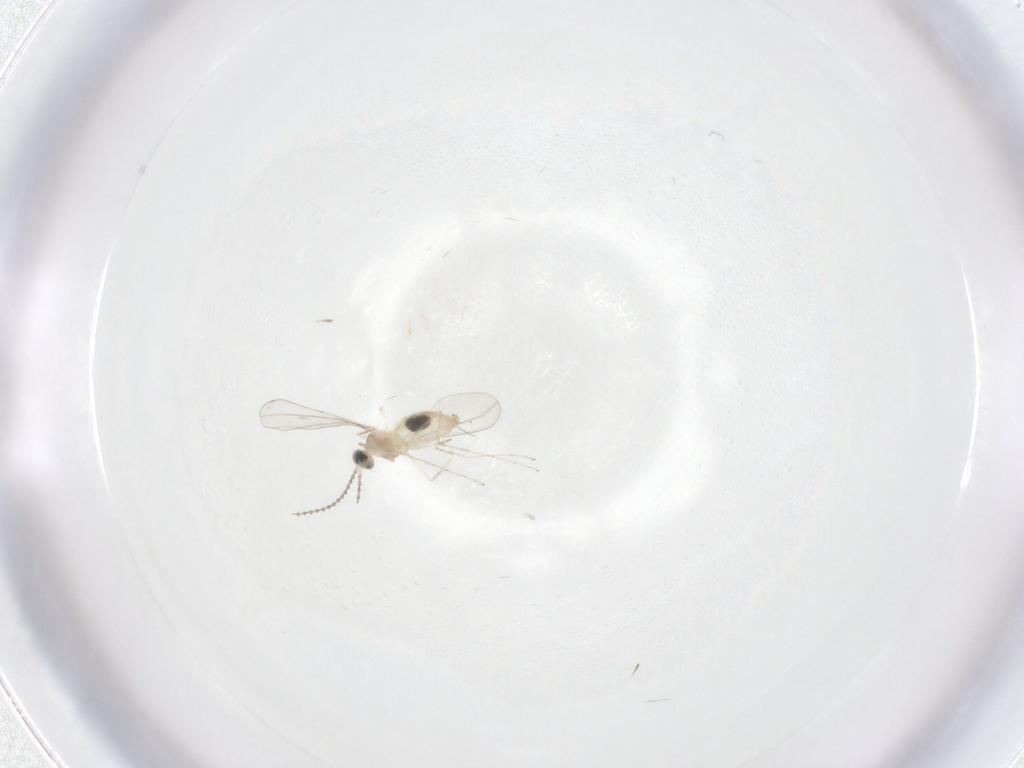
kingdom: Animalia
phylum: Arthropoda
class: Insecta
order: Diptera
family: Cecidomyiidae
